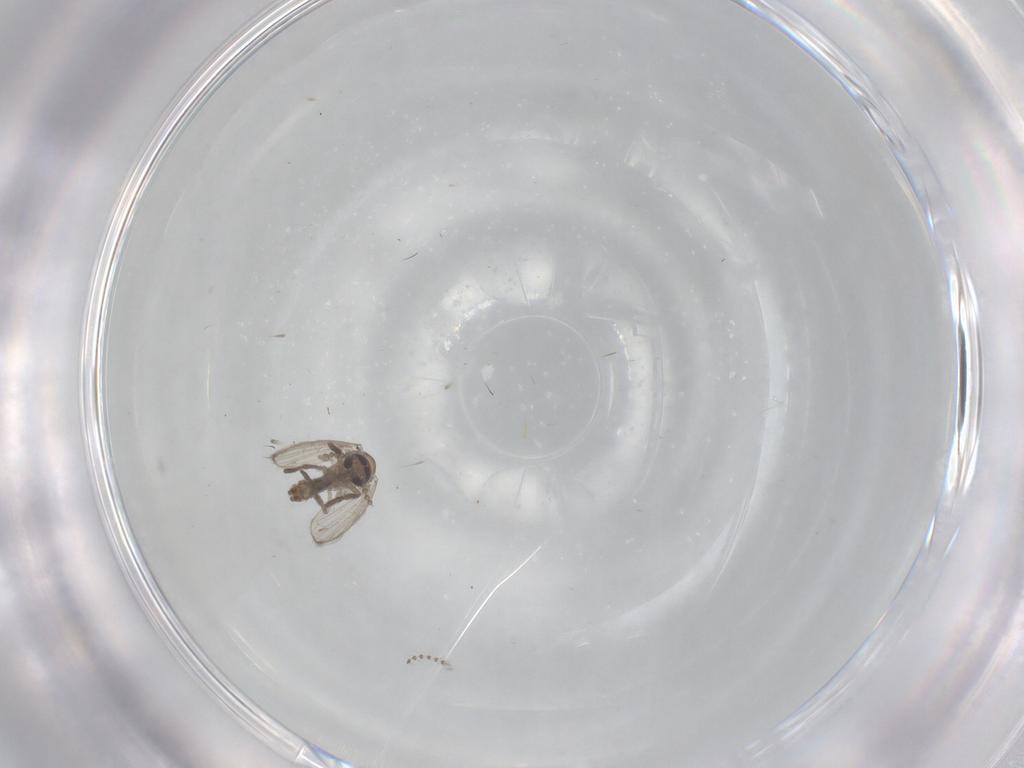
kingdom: Animalia
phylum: Arthropoda
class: Insecta
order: Diptera
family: Psychodidae
